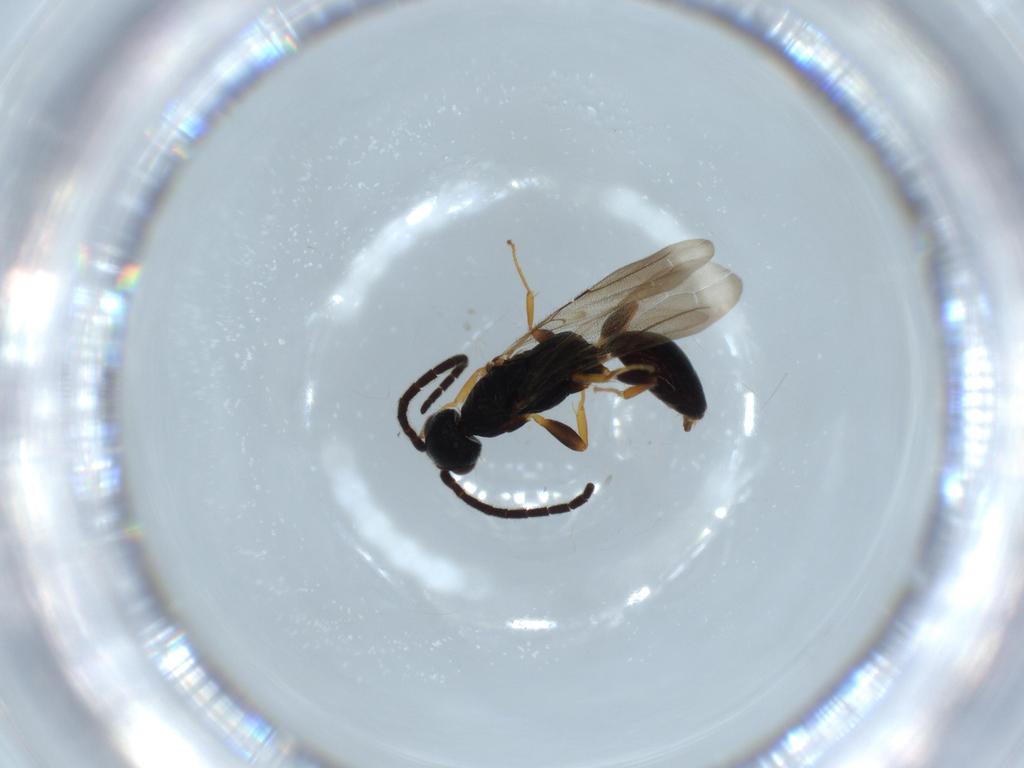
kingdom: Animalia
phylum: Arthropoda
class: Insecta
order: Hymenoptera
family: Bethylidae
